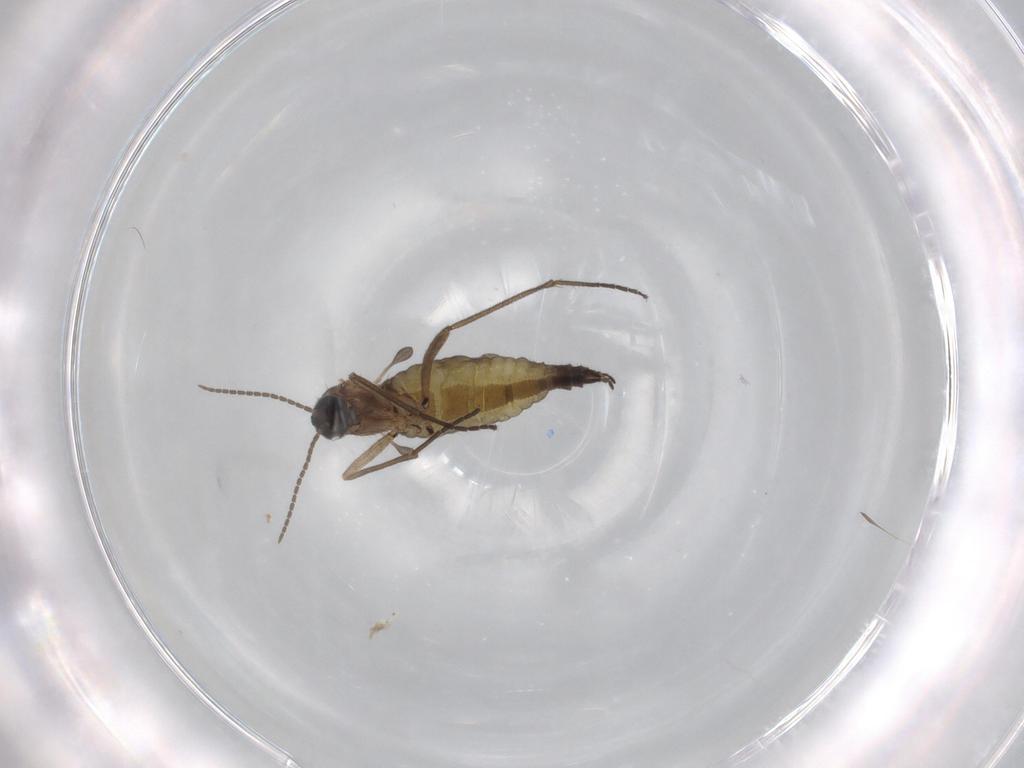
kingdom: Animalia
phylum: Arthropoda
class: Insecta
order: Diptera
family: Sciaridae
